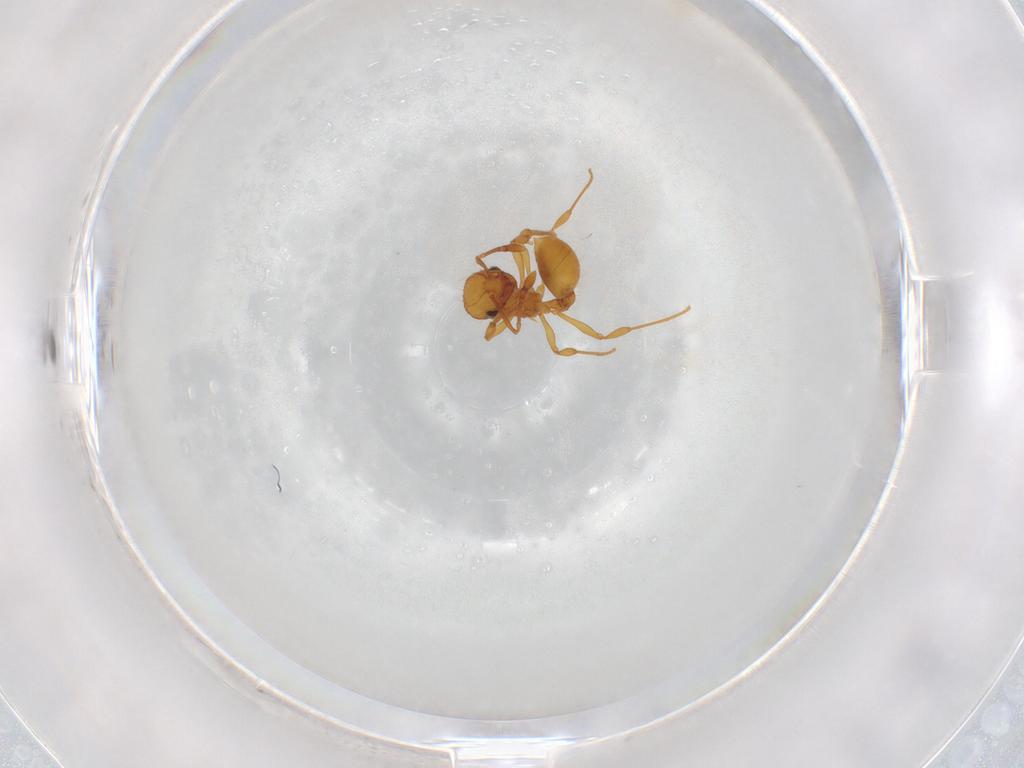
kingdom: Animalia
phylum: Arthropoda
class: Insecta
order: Hymenoptera
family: Formicidae
